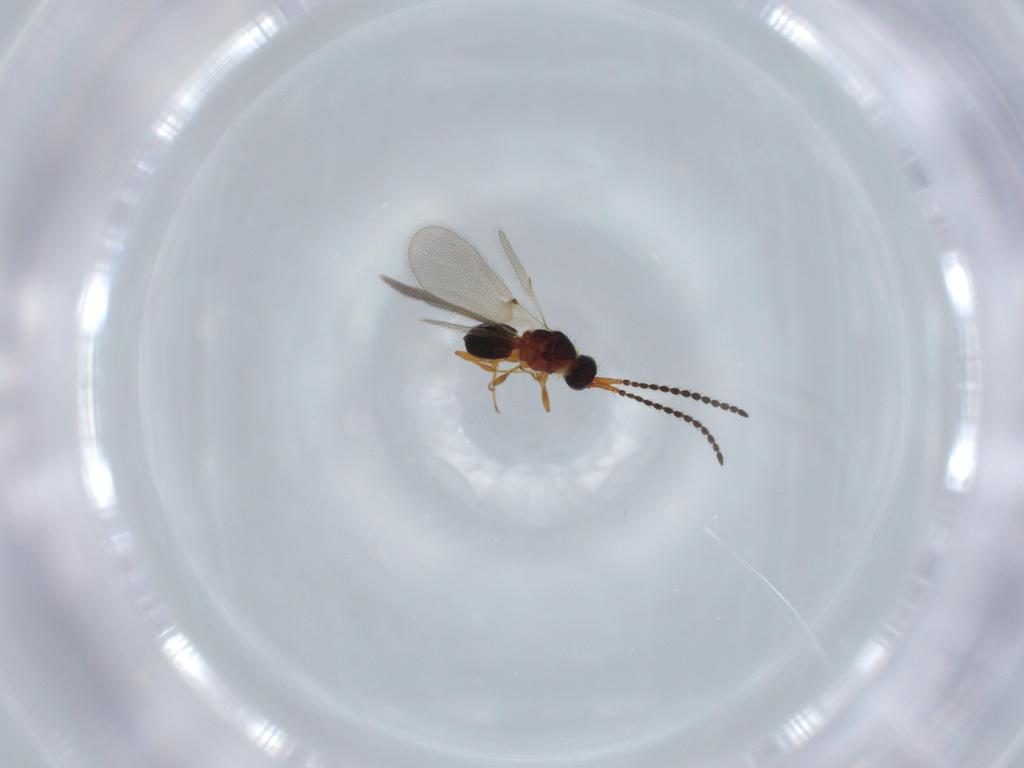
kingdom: Animalia
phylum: Arthropoda
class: Insecta
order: Hymenoptera
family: Diapriidae
